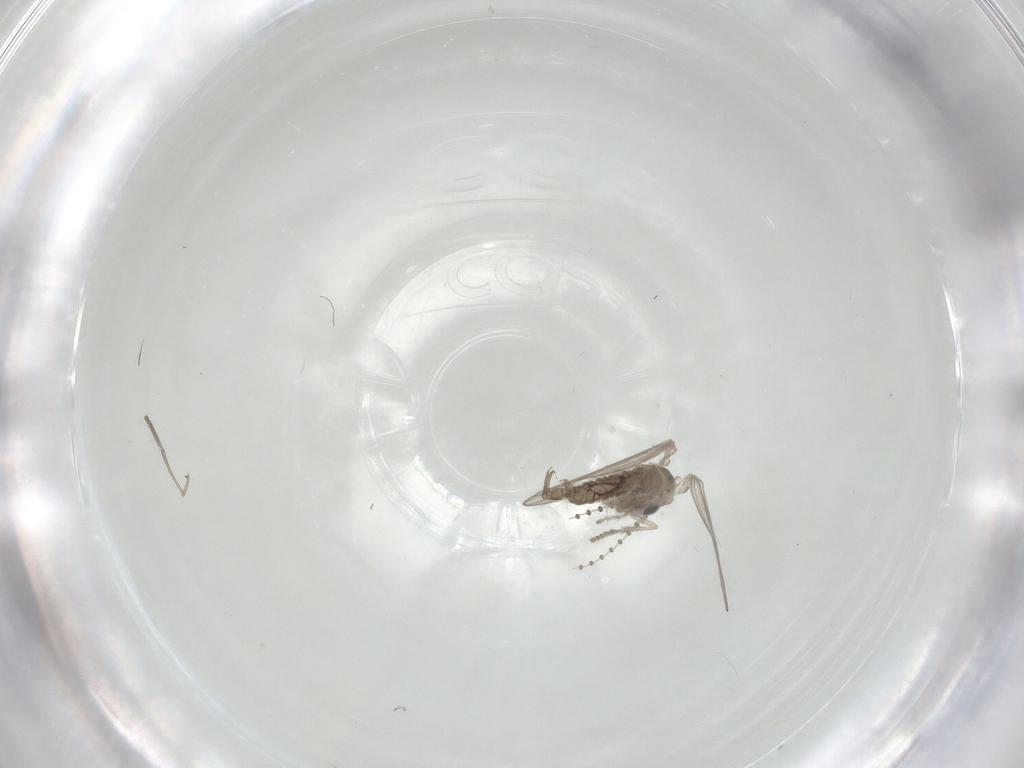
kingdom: Animalia
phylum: Arthropoda
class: Insecta
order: Diptera
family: Psychodidae
